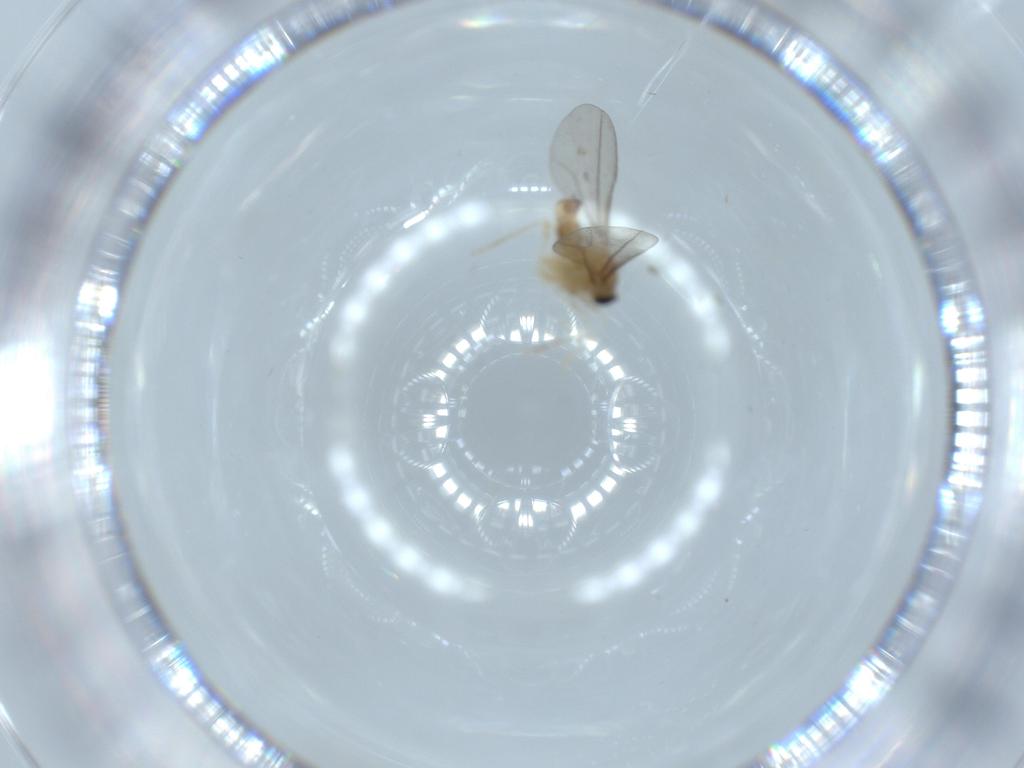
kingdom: Animalia
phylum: Arthropoda
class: Insecta
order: Diptera
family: Cecidomyiidae
